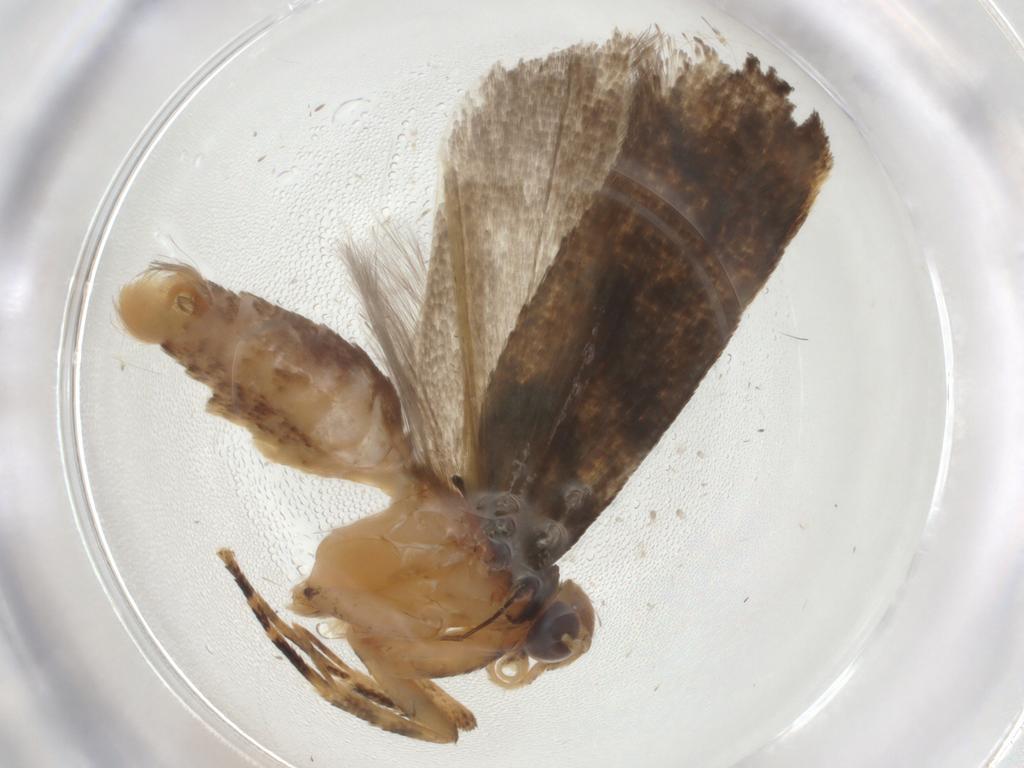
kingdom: Animalia
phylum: Arthropoda
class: Insecta
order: Lepidoptera
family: Gelechiidae
